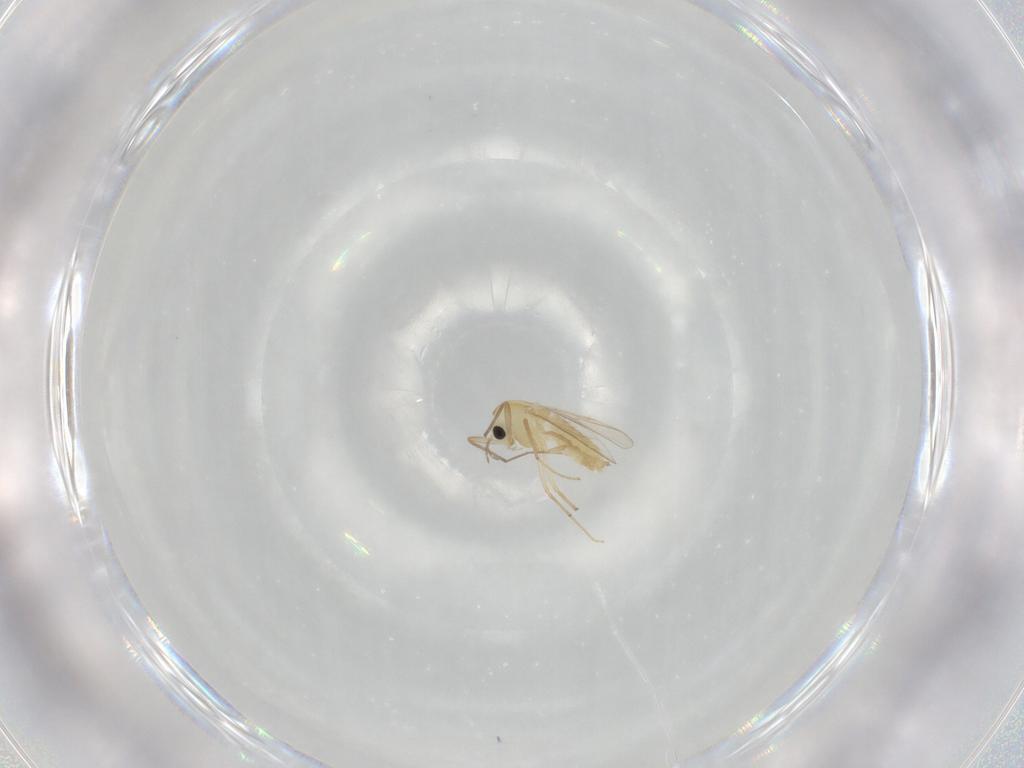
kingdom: Animalia
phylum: Arthropoda
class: Insecta
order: Diptera
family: Chironomidae
